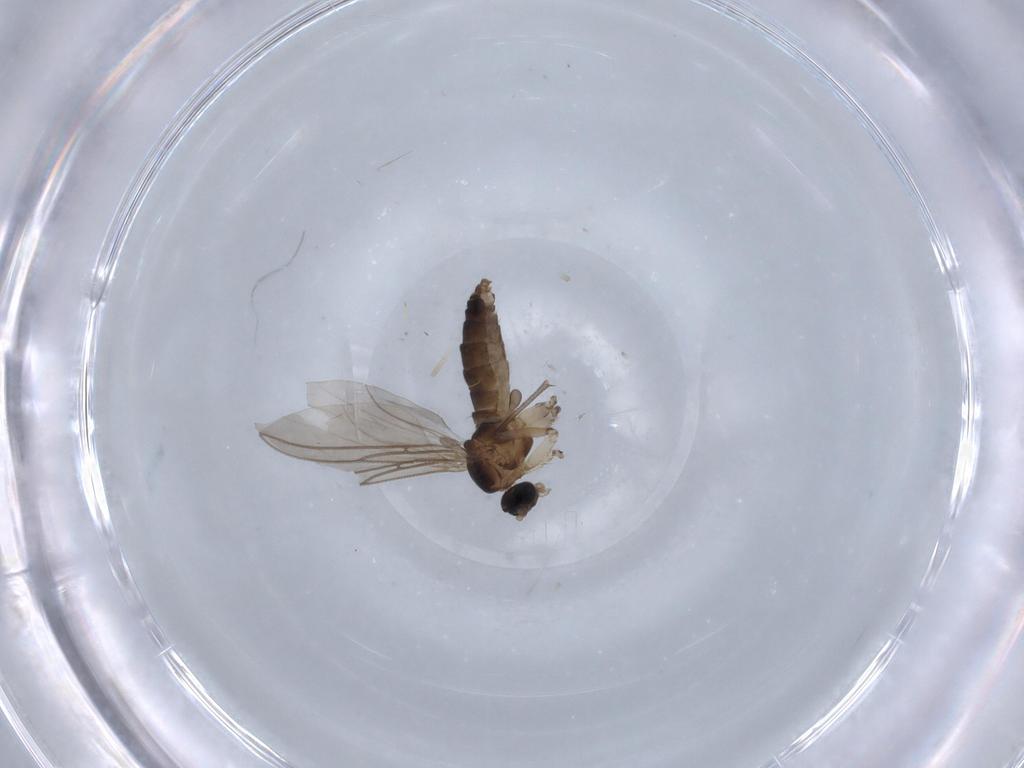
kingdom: Animalia
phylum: Arthropoda
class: Insecta
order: Diptera
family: Sciaridae
